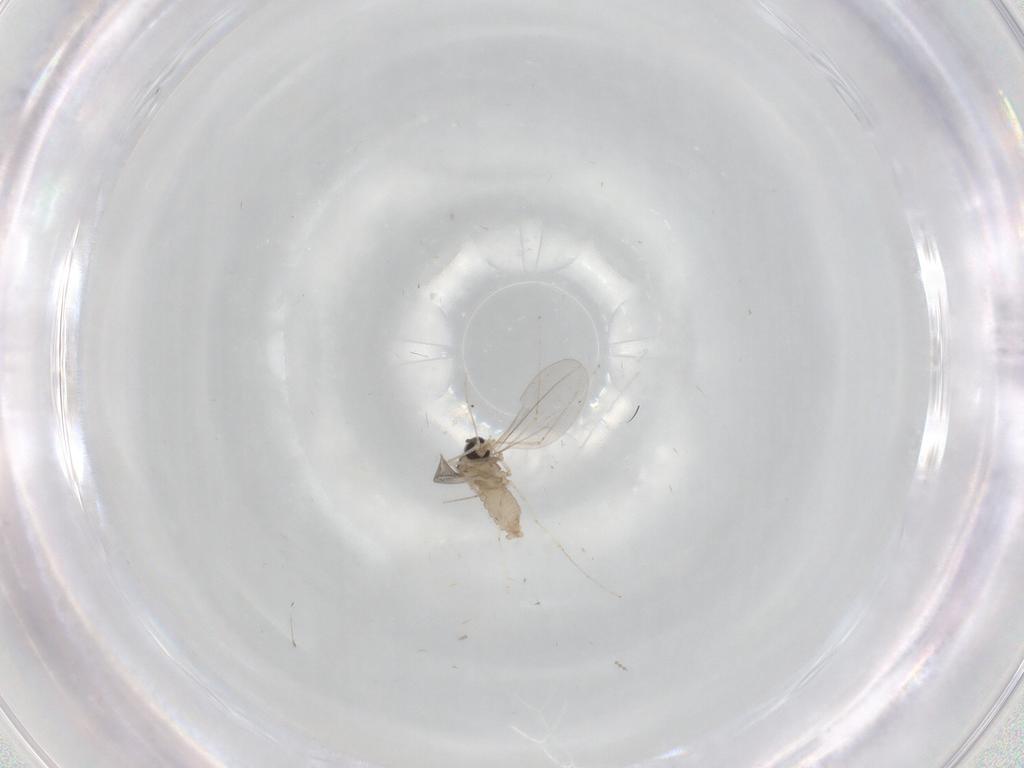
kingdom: Animalia
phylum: Arthropoda
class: Insecta
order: Diptera
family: Cecidomyiidae
